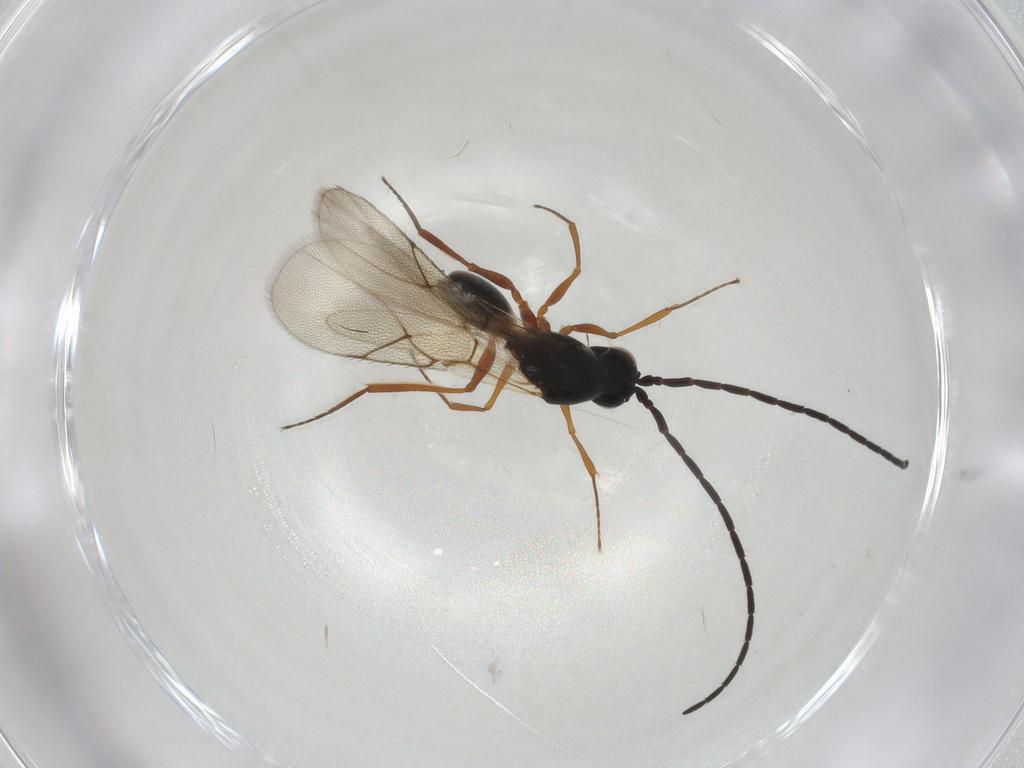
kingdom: Animalia
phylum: Arthropoda
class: Insecta
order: Hymenoptera
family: Figitidae
